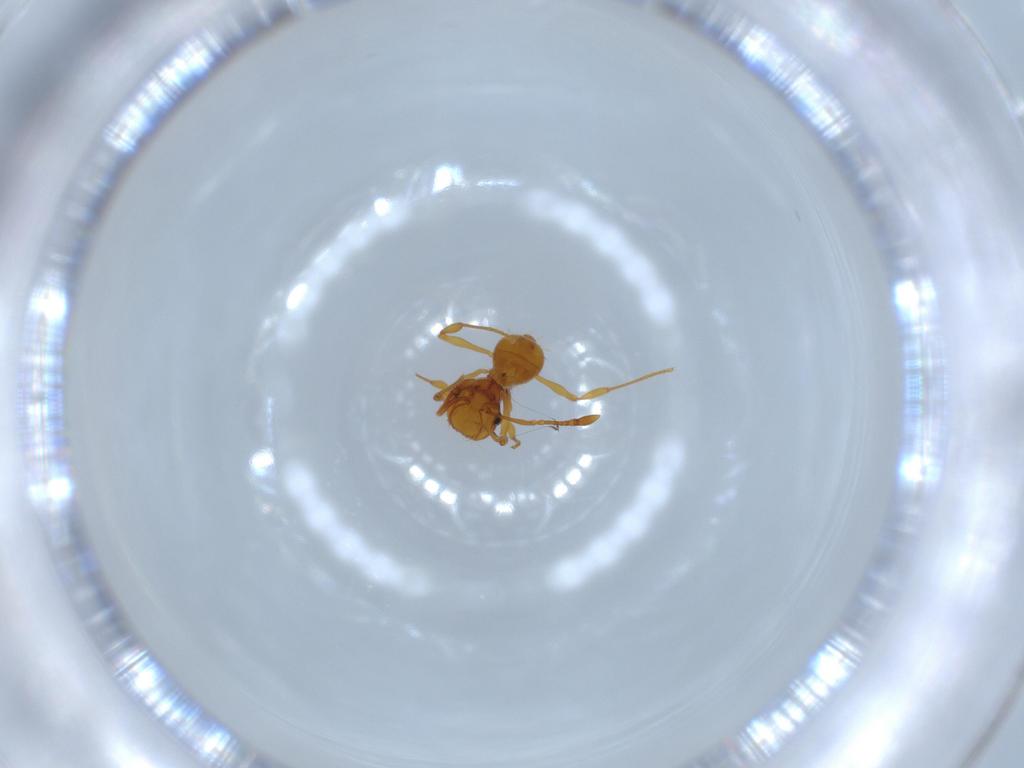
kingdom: Animalia
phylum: Arthropoda
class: Insecta
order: Hymenoptera
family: Formicidae
